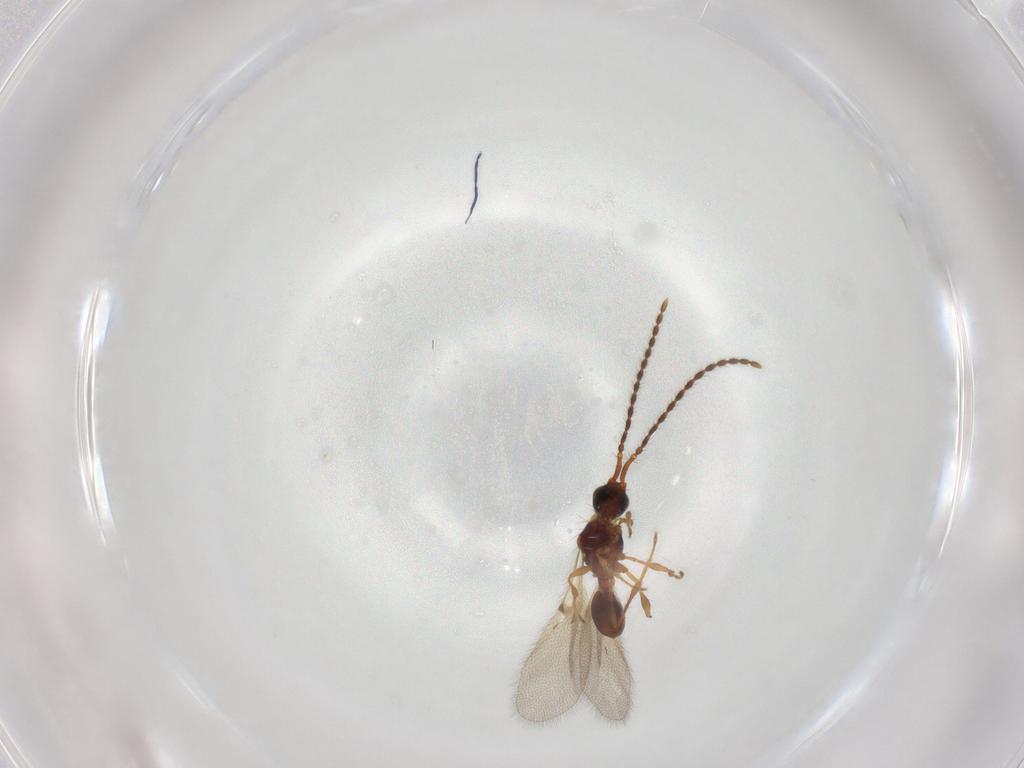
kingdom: Animalia
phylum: Arthropoda
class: Insecta
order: Hymenoptera
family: Diapriidae
